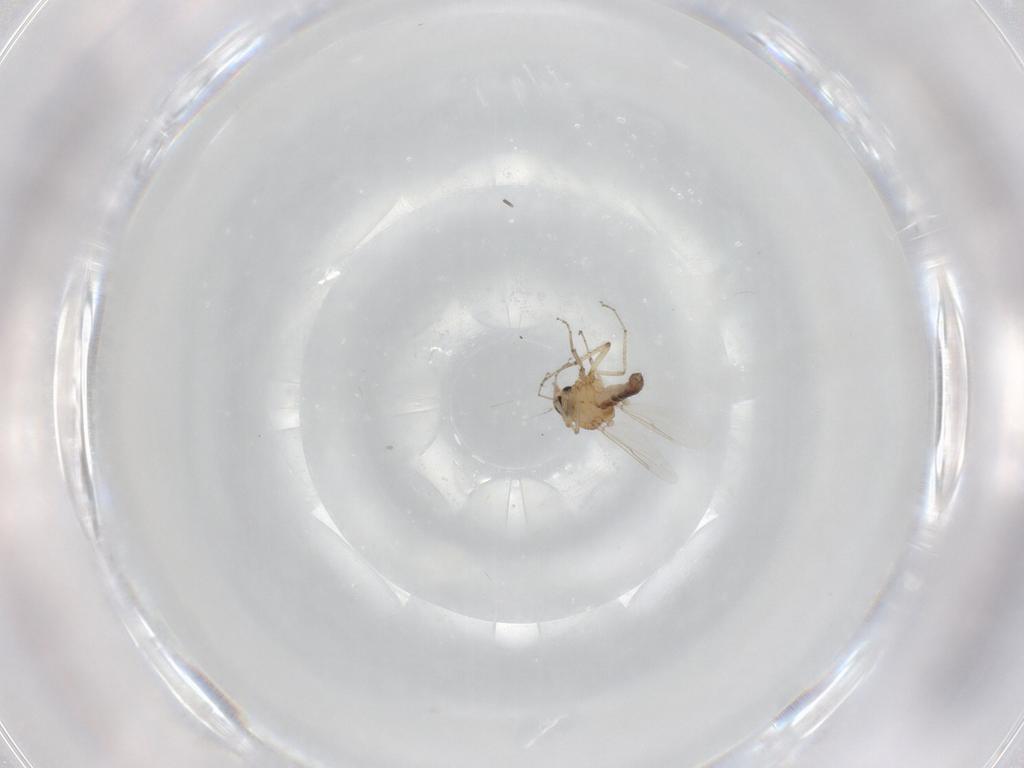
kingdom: Animalia
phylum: Arthropoda
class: Insecta
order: Diptera
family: Ceratopogonidae
